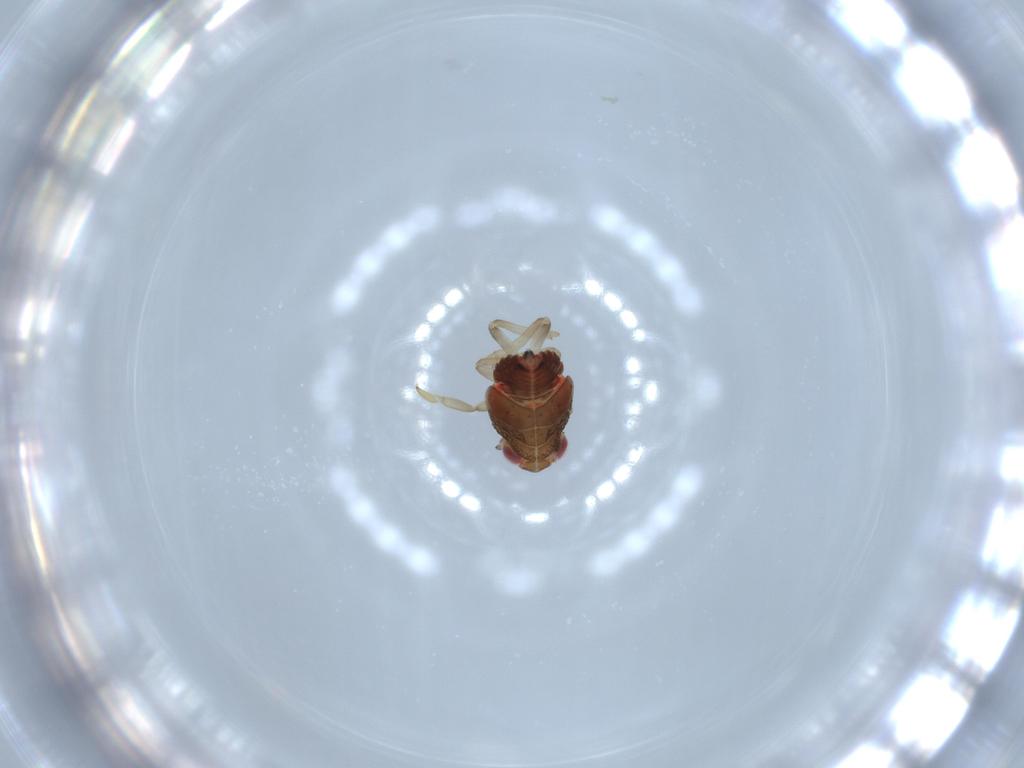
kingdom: Animalia
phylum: Arthropoda
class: Insecta
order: Hemiptera
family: Issidae
